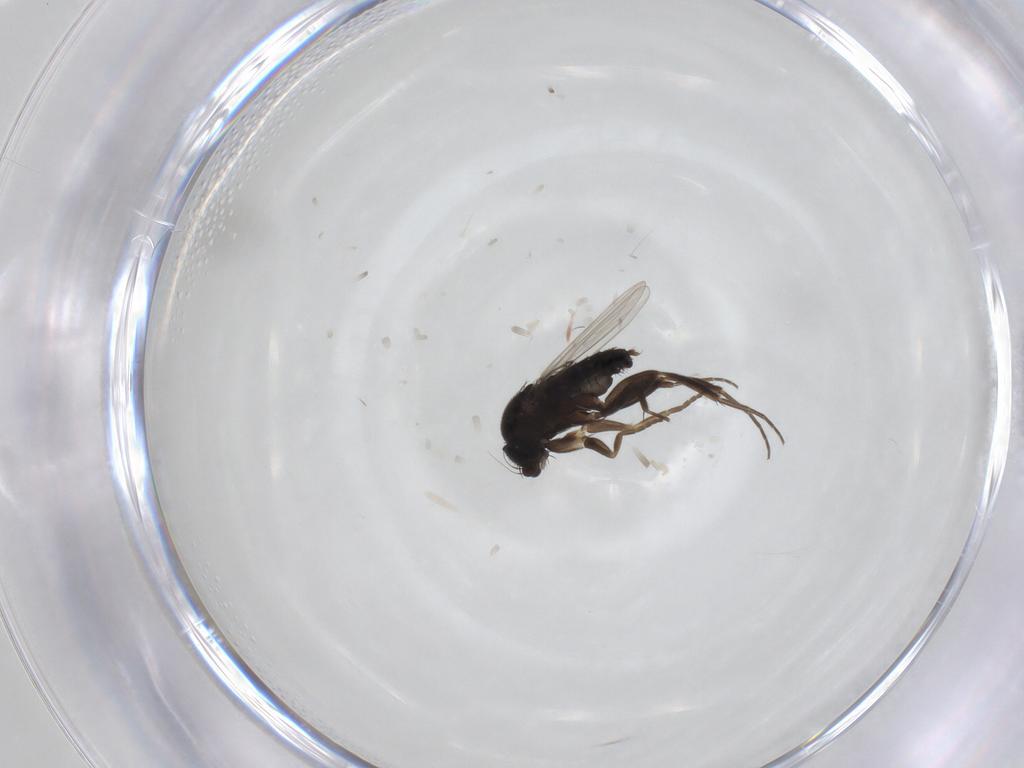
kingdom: Animalia
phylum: Arthropoda
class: Insecta
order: Diptera
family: Phoridae
